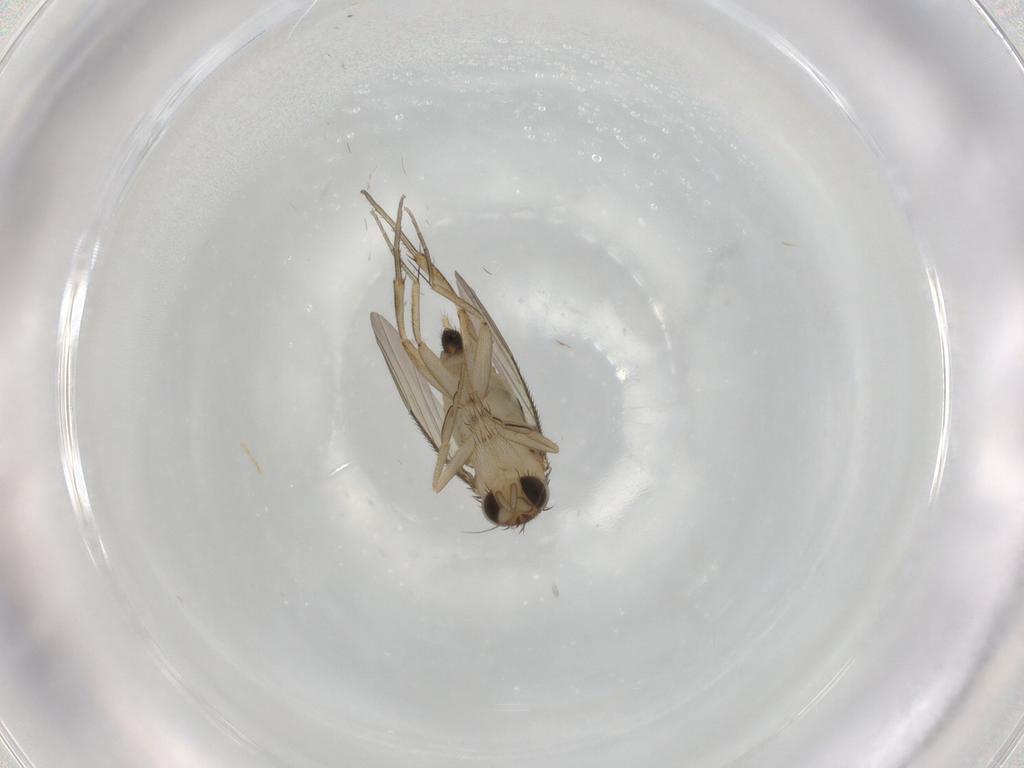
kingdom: Animalia
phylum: Arthropoda
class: Insecta
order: Diptera
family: Phoridae
